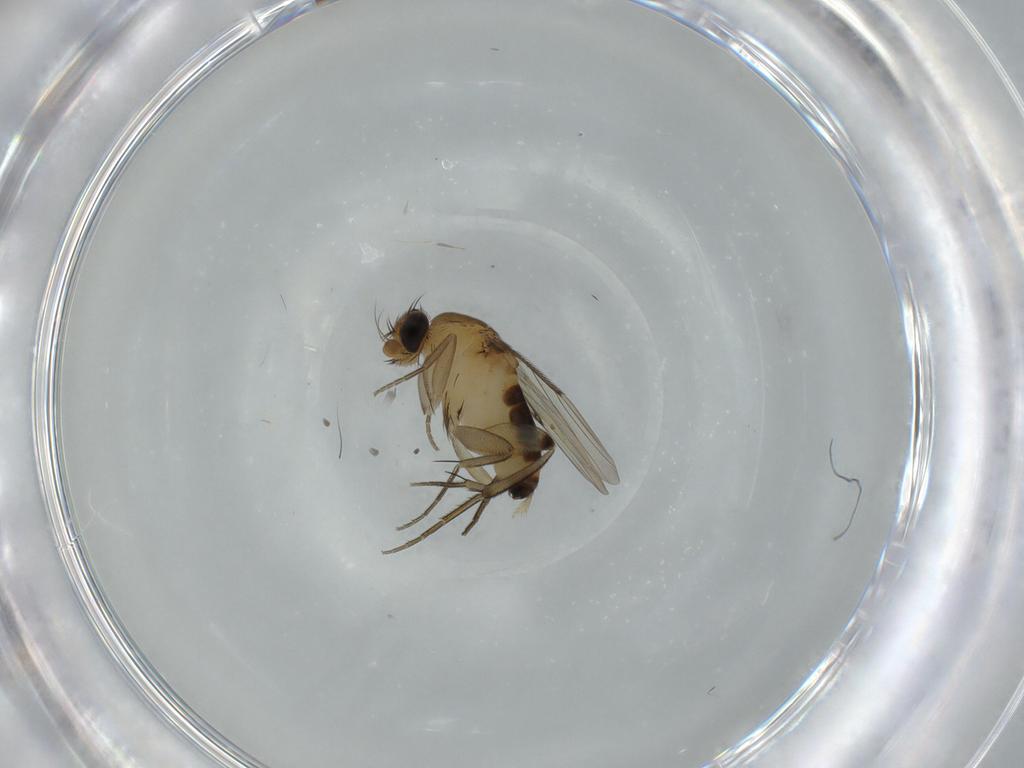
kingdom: Animalia
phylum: Arthropoda
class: Insecta
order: Diptera
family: Phoridae
